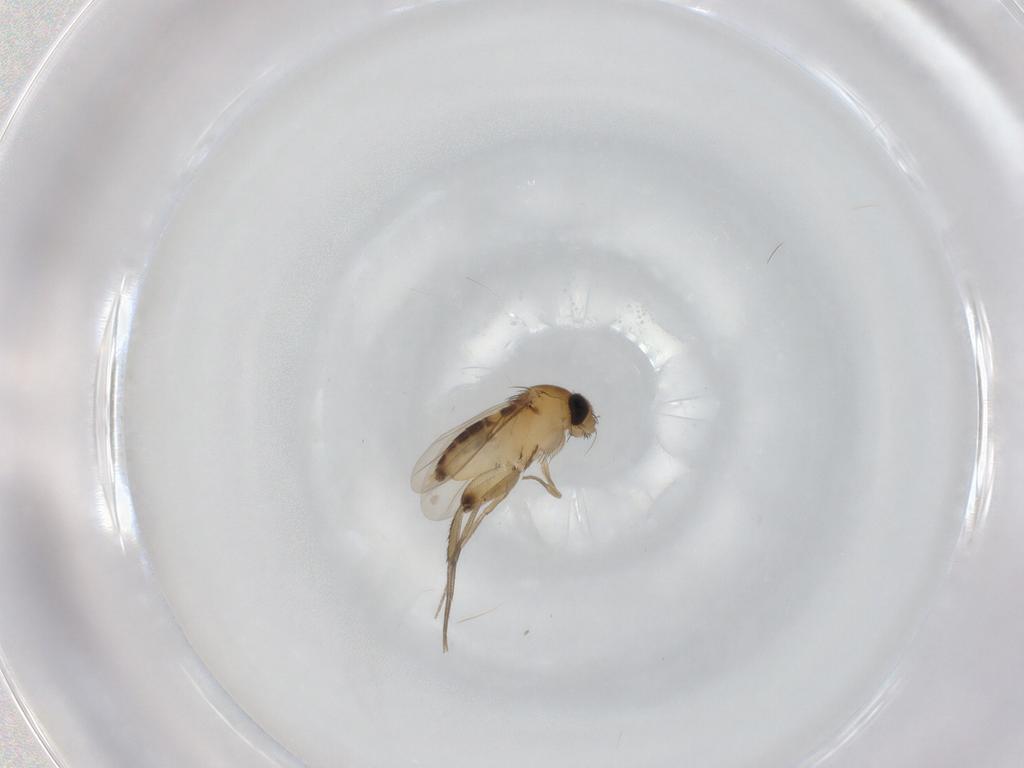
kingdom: Animalia
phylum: Arthropoda
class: Insecta
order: Diptera
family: Phoridae
